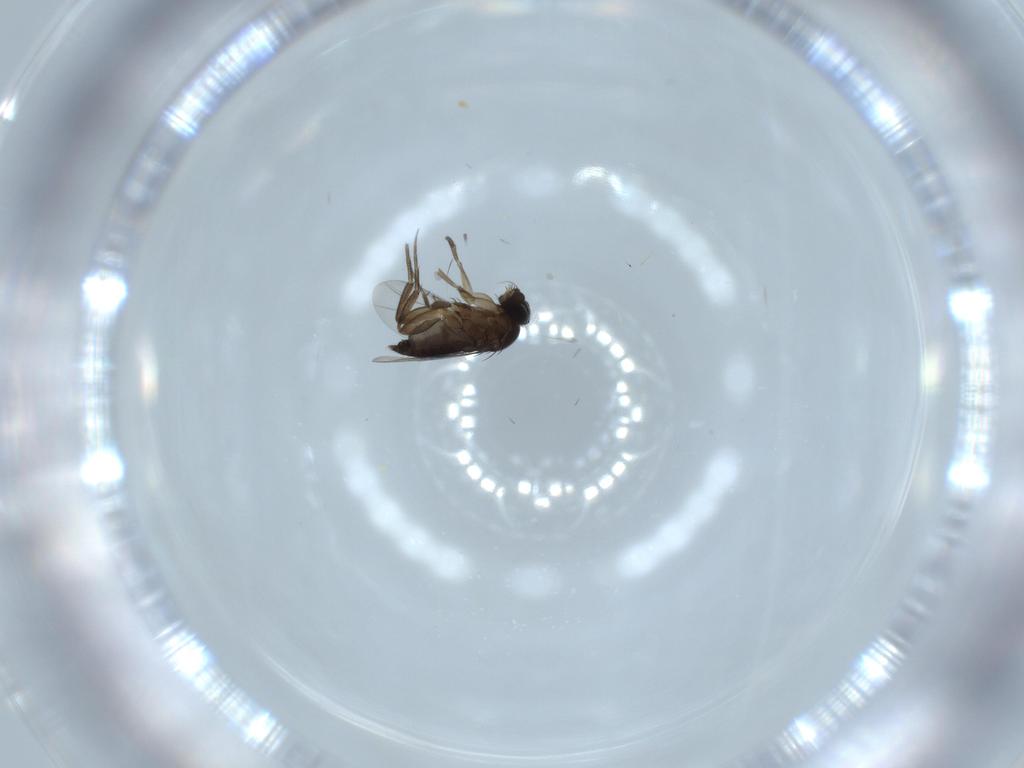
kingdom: Animalia
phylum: Arthropoda
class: Insecta
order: Diptera
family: Phoridae
